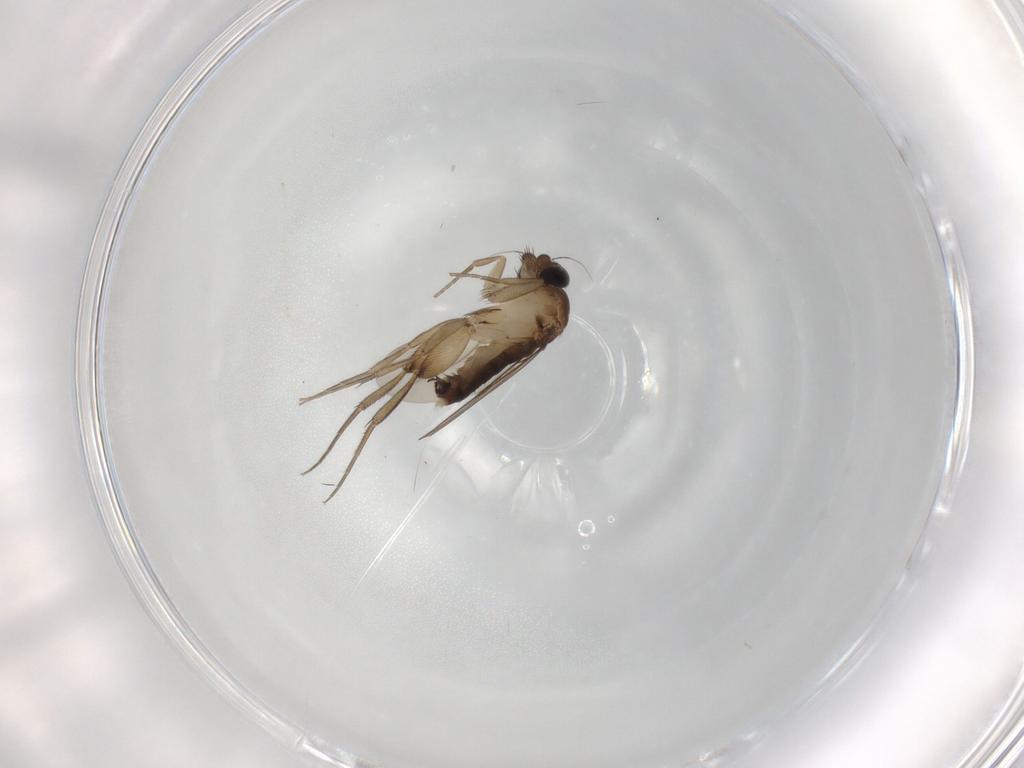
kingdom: Animalia
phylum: Arthropoda
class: Insecta
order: Diptera
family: Phoridae
